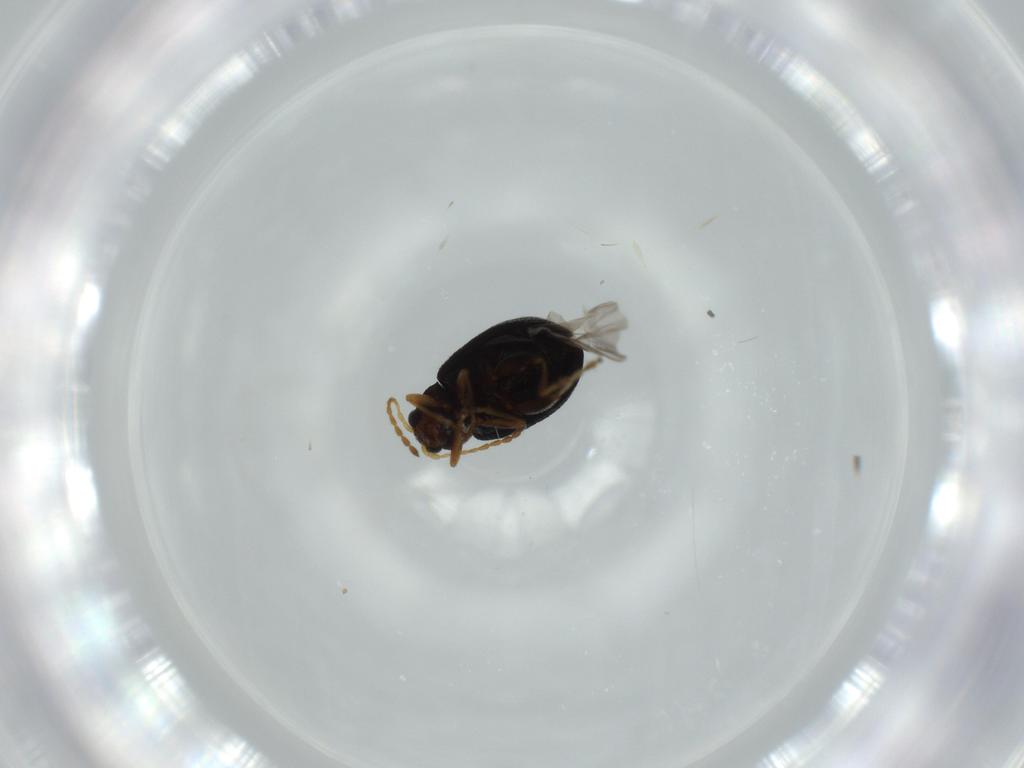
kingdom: Animalia
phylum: Arthropoda
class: Insecta
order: Coleoptera
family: Chrysomelidae
